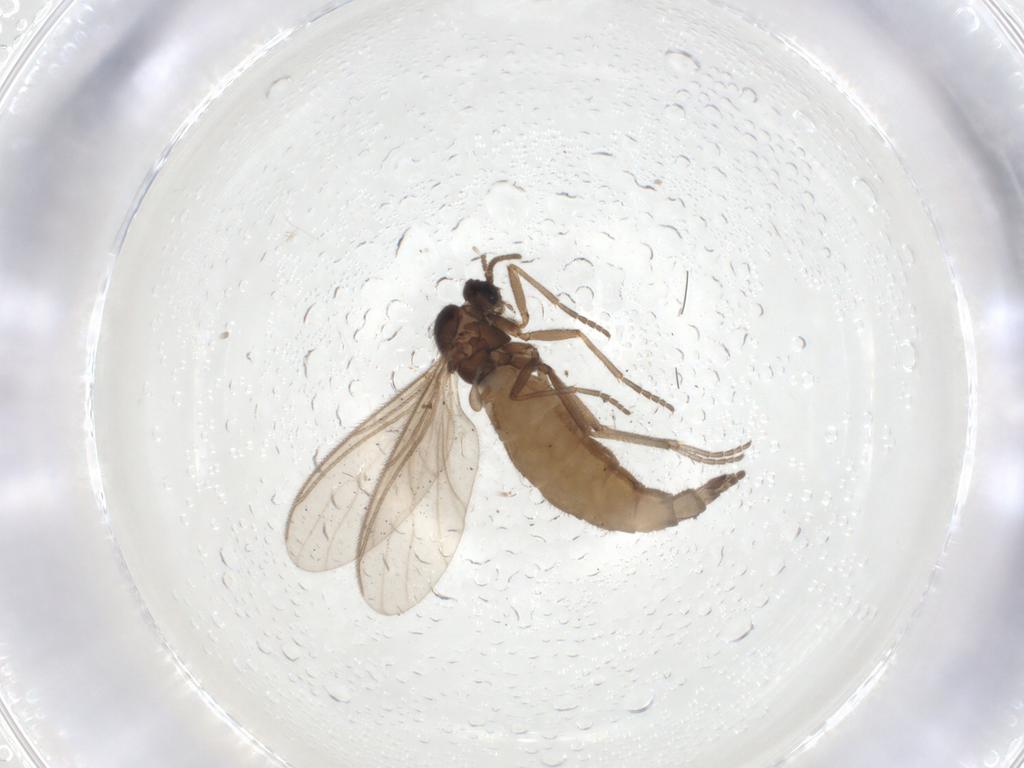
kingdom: Animalia
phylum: Arthropoda
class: Insecta
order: Diptera
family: Sciaridae
